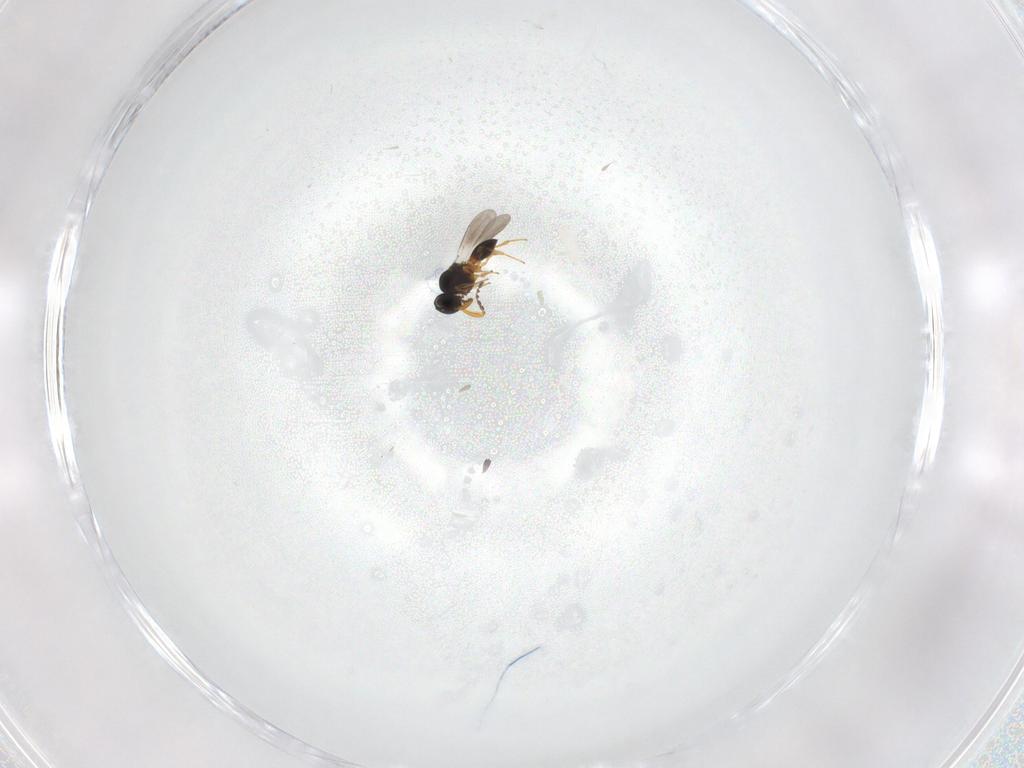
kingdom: Animalia
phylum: Arthropoda
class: Insecta
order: Hymenoptera
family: Platygastridae
